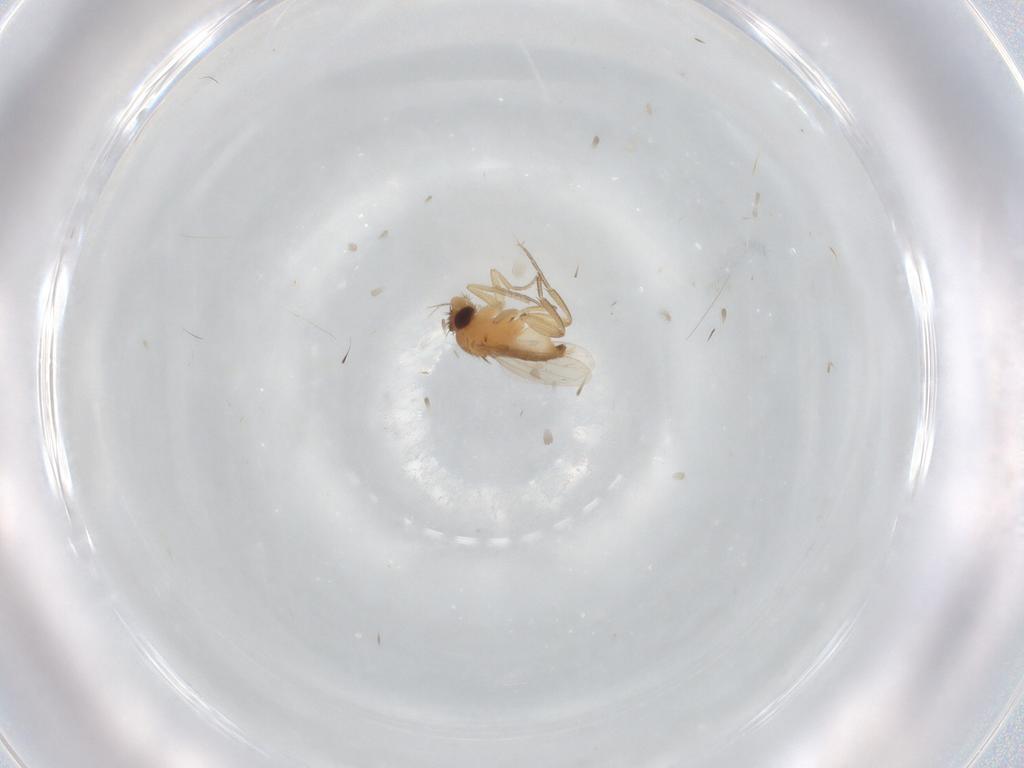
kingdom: Animalia
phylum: Arthropoda
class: Insecta
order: Diptera
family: Phoridae
